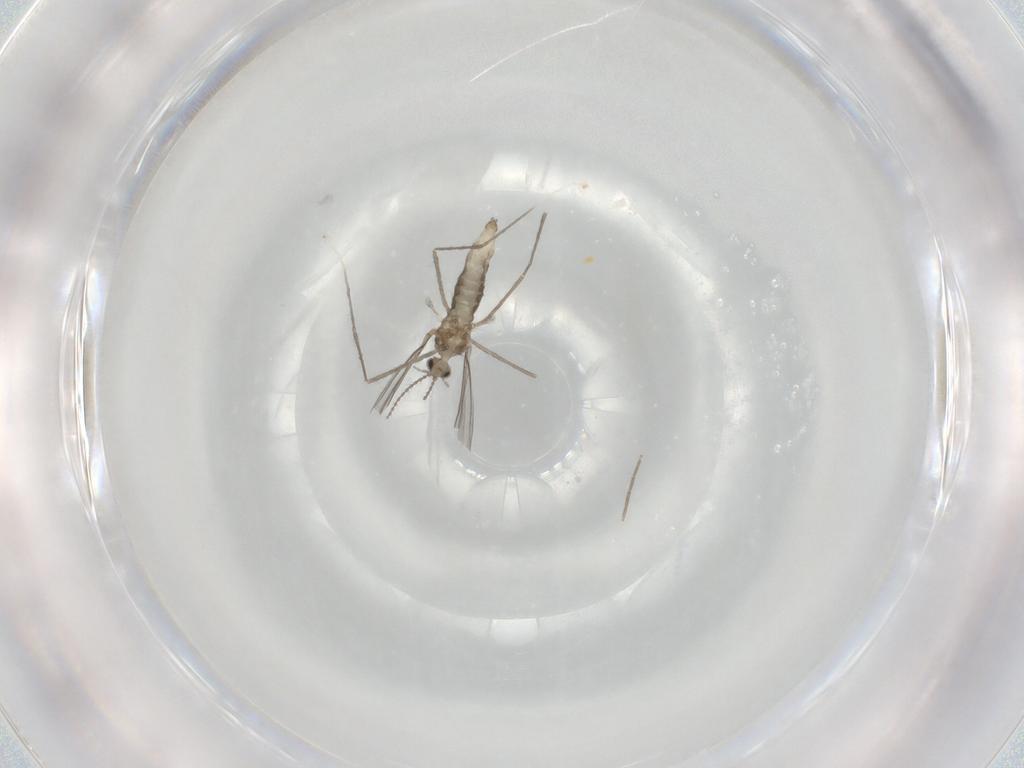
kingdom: Animalia
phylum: Arthropoda
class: Insecta
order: Diptera
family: Cecidomyiidae
